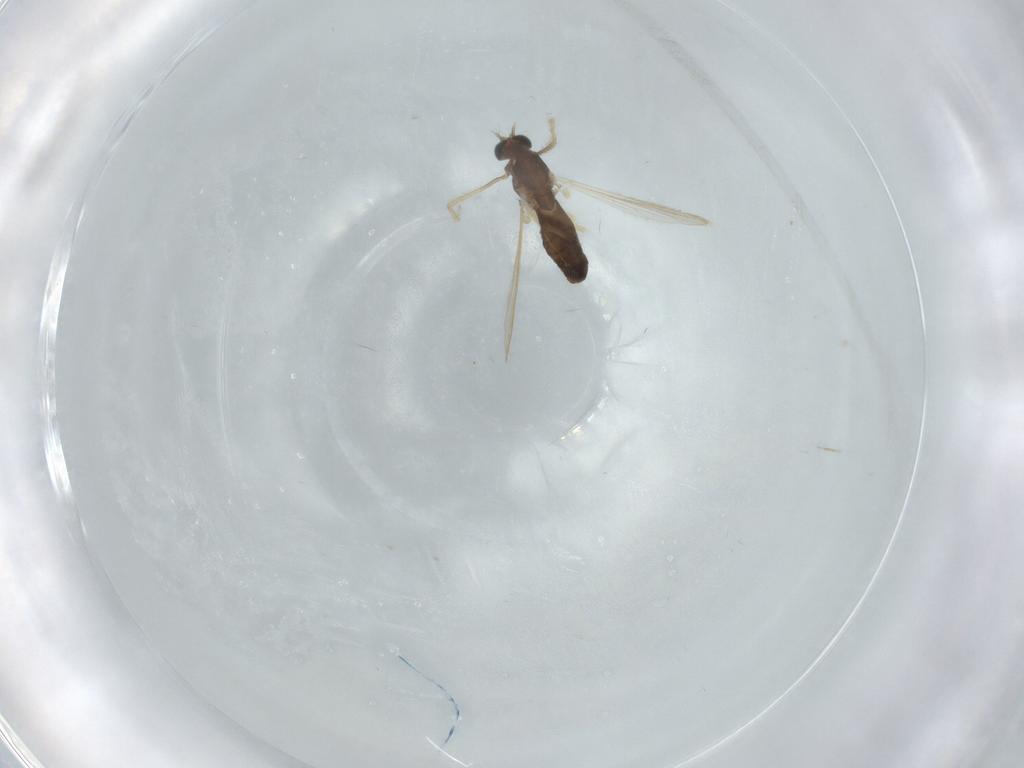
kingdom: Animalia
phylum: Arthropoda
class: Insecta
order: Diptera
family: Chironomidae
